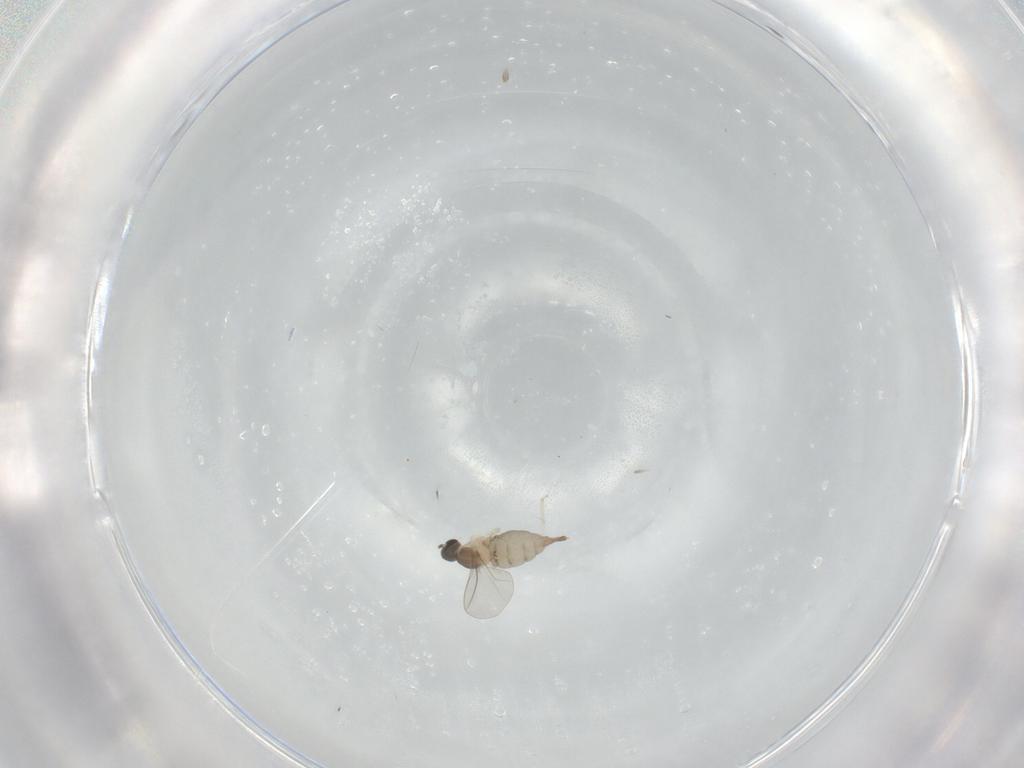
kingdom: Animalia
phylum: Arthropoda
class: Insecta
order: Diptera
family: Cecidomyiidae
